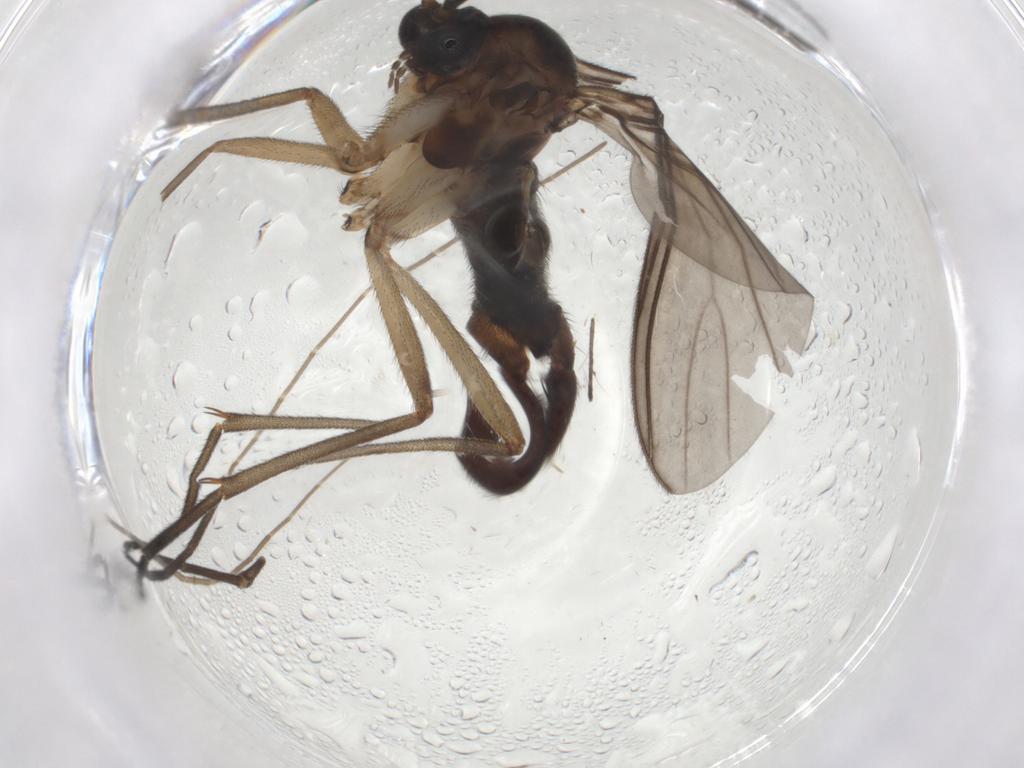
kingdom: Animalia
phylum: Arthropoda
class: Insecta
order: Diptera
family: Sciaridae
